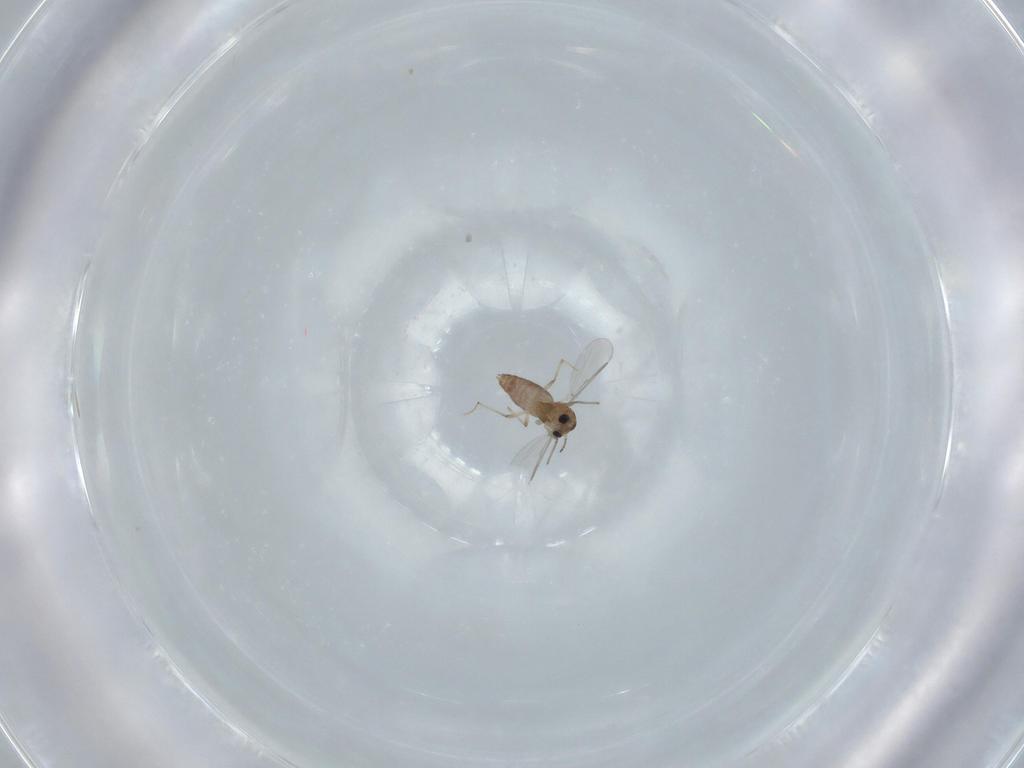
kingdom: Animalia
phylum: Arthropoda
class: Insecta
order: Diptera
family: Chironomidae
